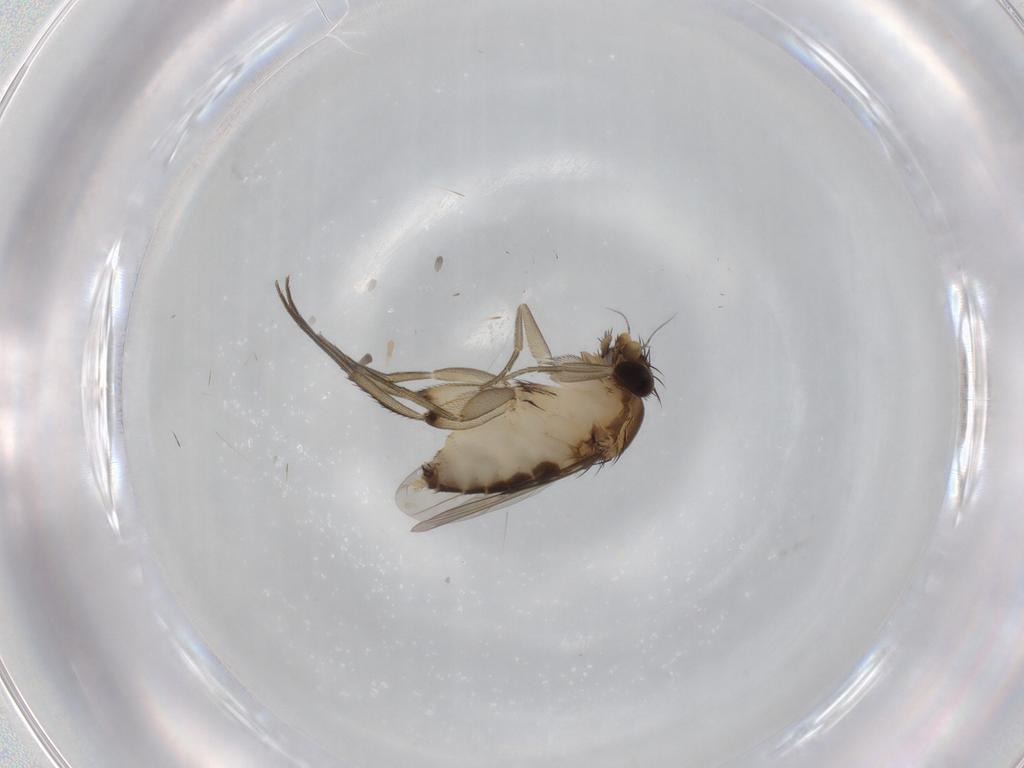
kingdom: Animalia
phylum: Arthropoda
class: Insecta
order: Diptera
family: Phoridae
